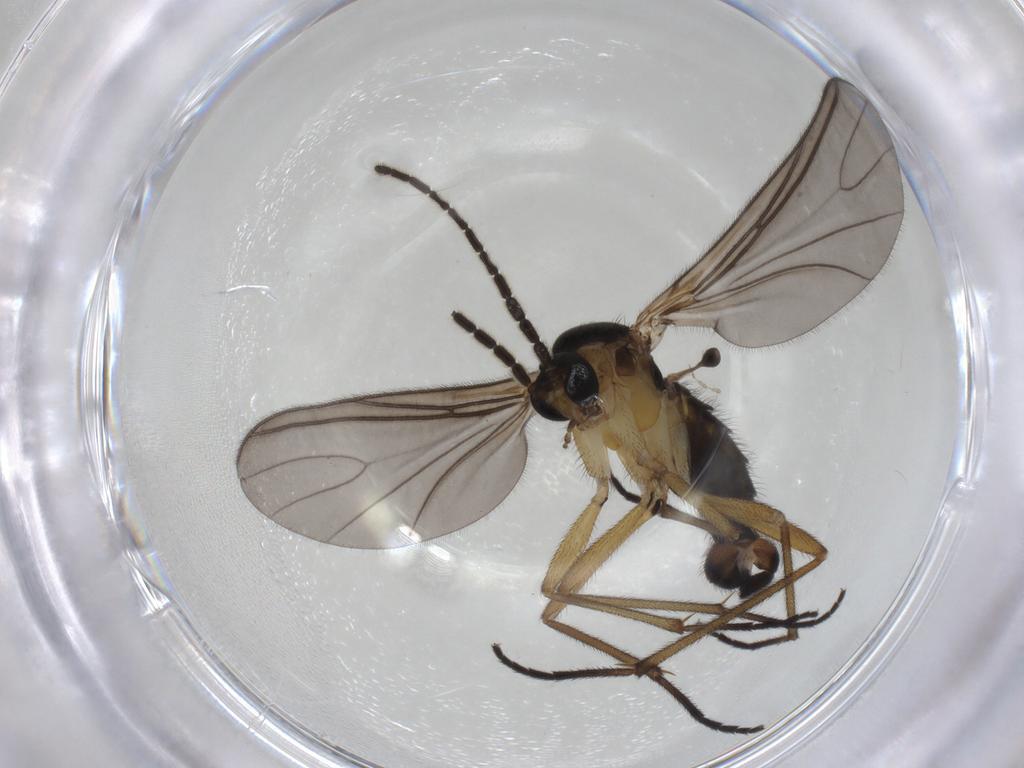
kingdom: Animalia
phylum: Arthropoda
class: Insecta
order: Diptera
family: Sciaridae
